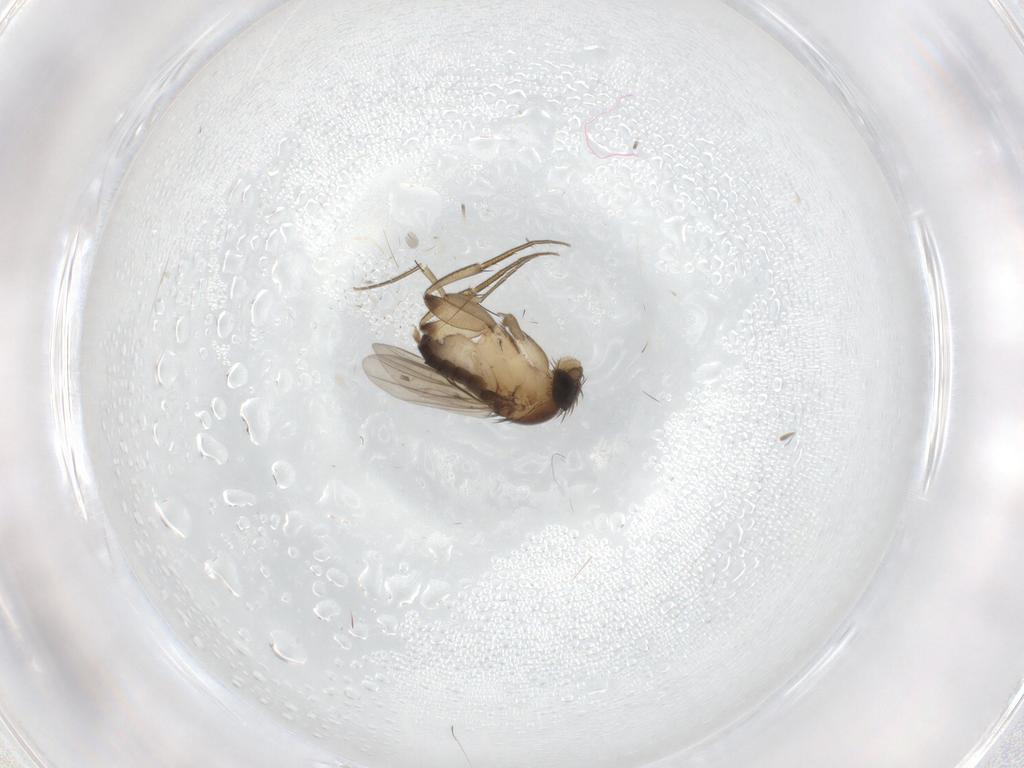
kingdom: Animalia
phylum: Arthropoda
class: Insecta
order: Diptera
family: Phoridae
